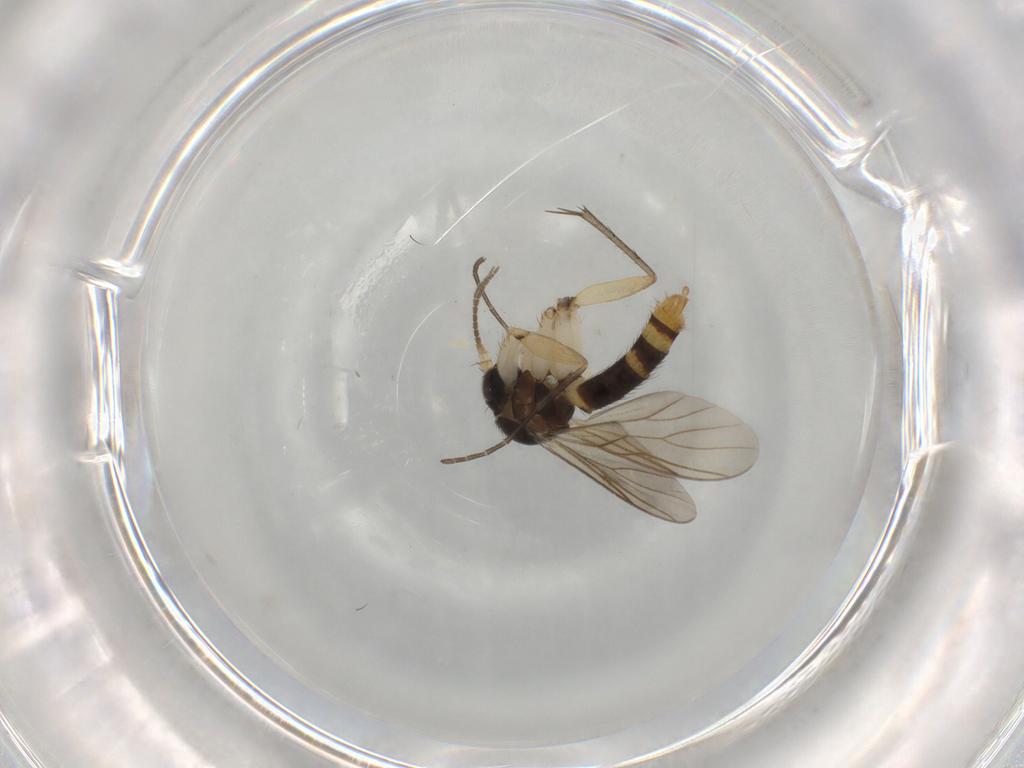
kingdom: Animalia
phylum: Arthropoda
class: Insecta
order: Diptera
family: Mycetophilidae
